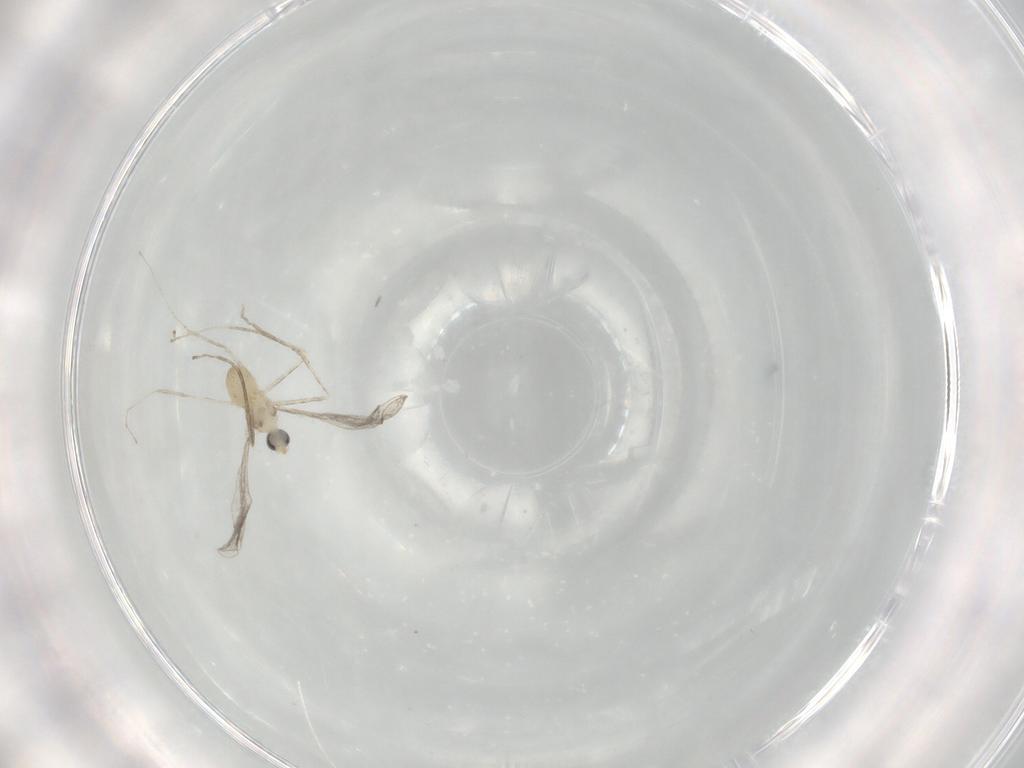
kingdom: Animalia
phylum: Arthropoda
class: Insecta
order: Diptera
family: Cecidomyiidae
